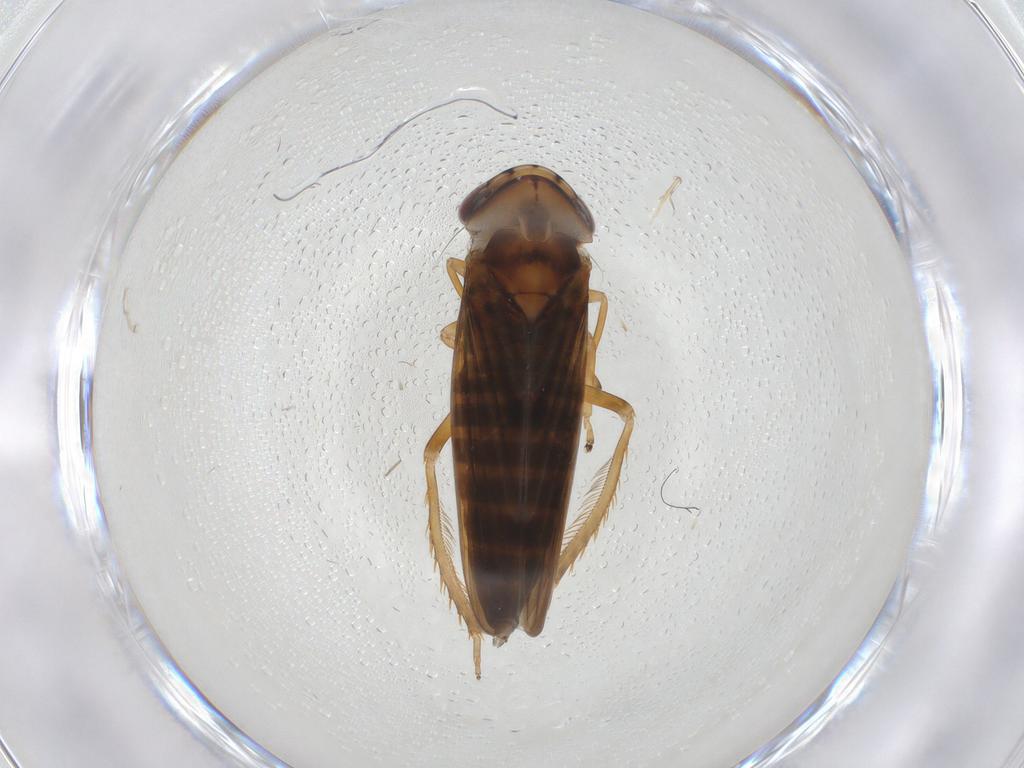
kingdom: Animalia
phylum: Arthropoda
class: Insecta
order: Hemiptera
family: Cicadellidae
